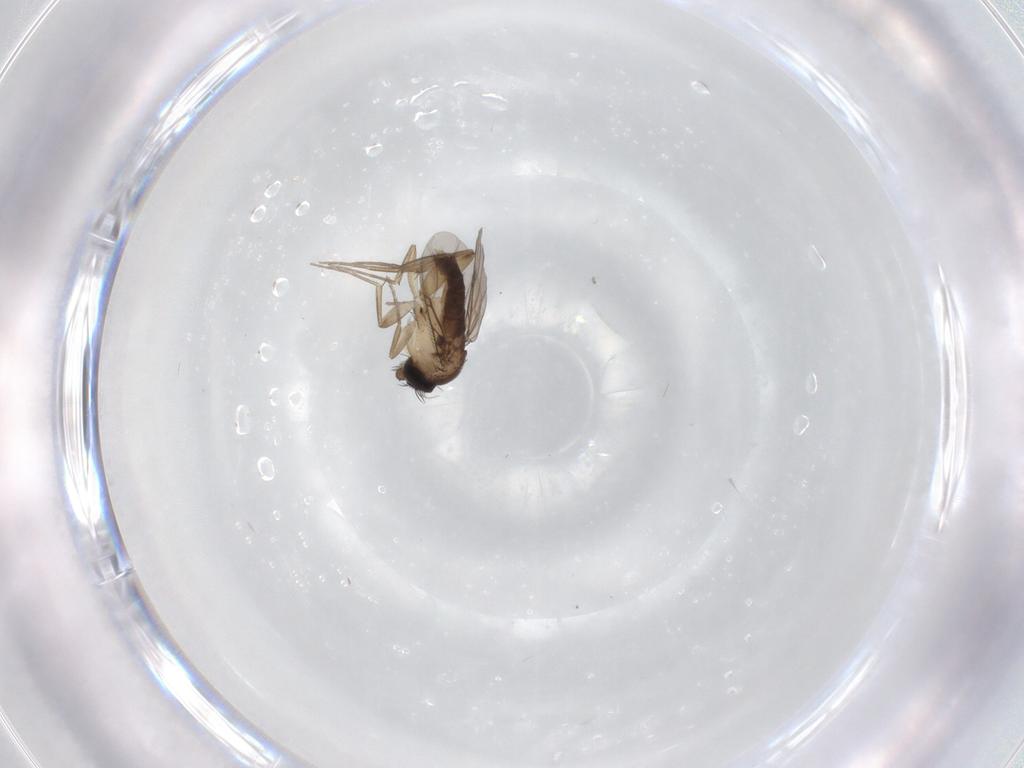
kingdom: Animalia
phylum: Arthropoda
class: Insecta
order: Diptera
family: Phoridae
